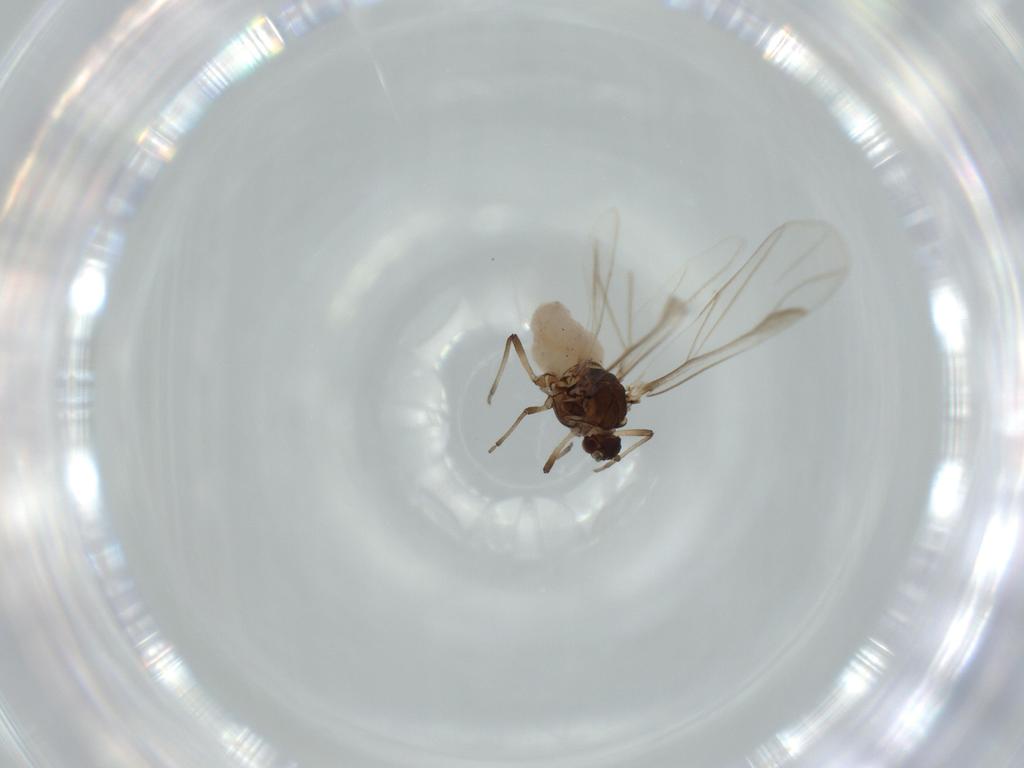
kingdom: Animalia
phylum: Arthropoda
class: Insecta
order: Hemiptera
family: Aphididae
